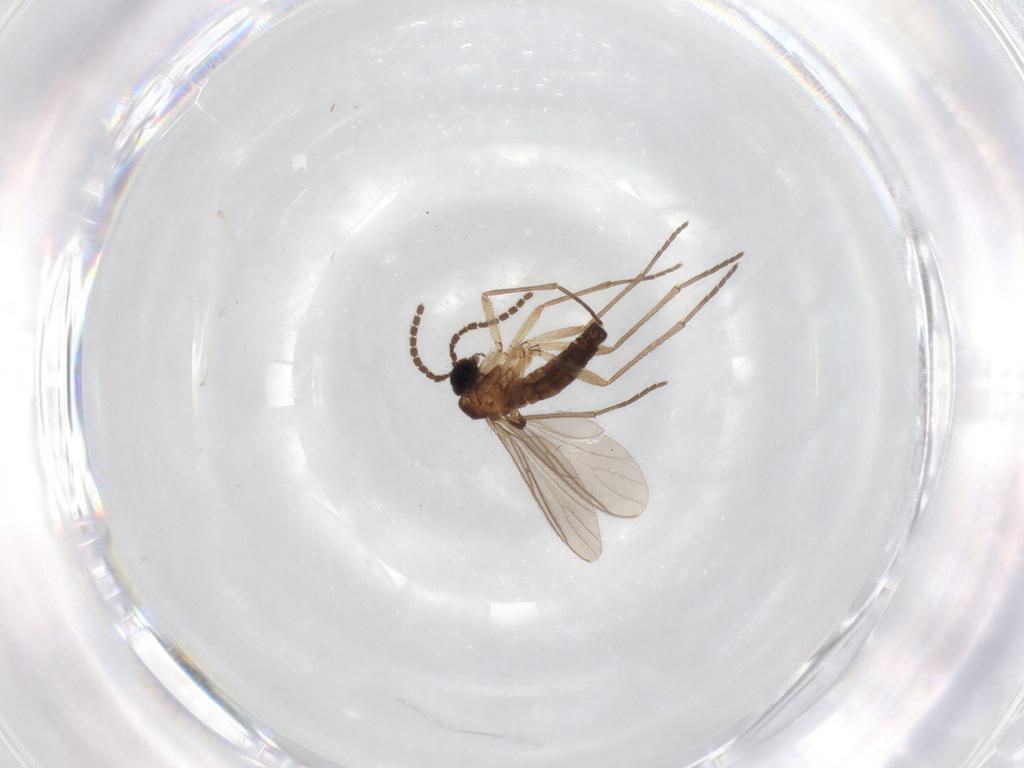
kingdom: Animalia
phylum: Arthropoda
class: Insecta
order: Diptera
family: Sciaridae
